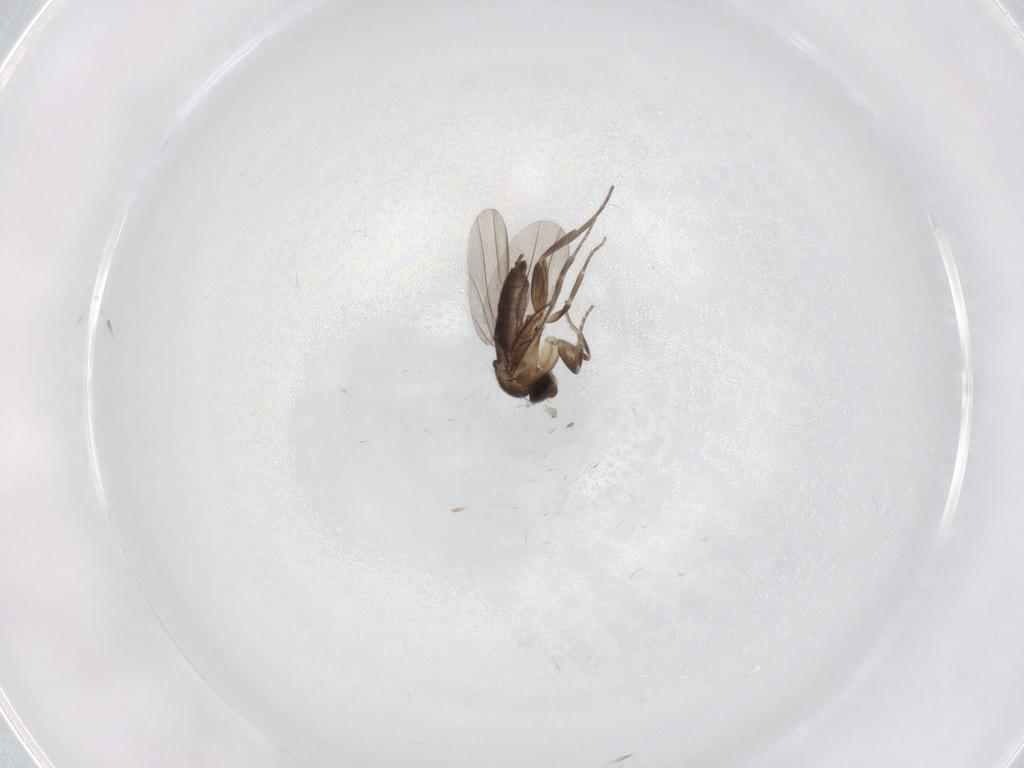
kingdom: Animalia
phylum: Arthropoda
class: Insecta
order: Diptera
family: Phoridae
